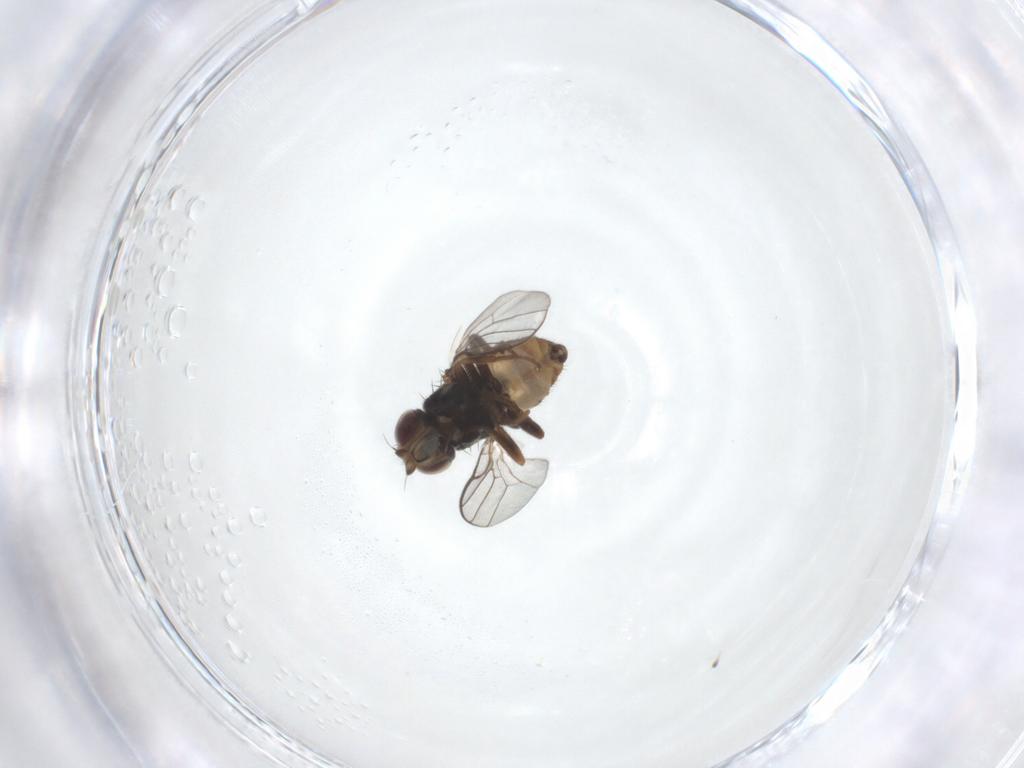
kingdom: Animalia
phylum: Arthropoda
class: Insecta
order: Diptera
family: Chloropidae
